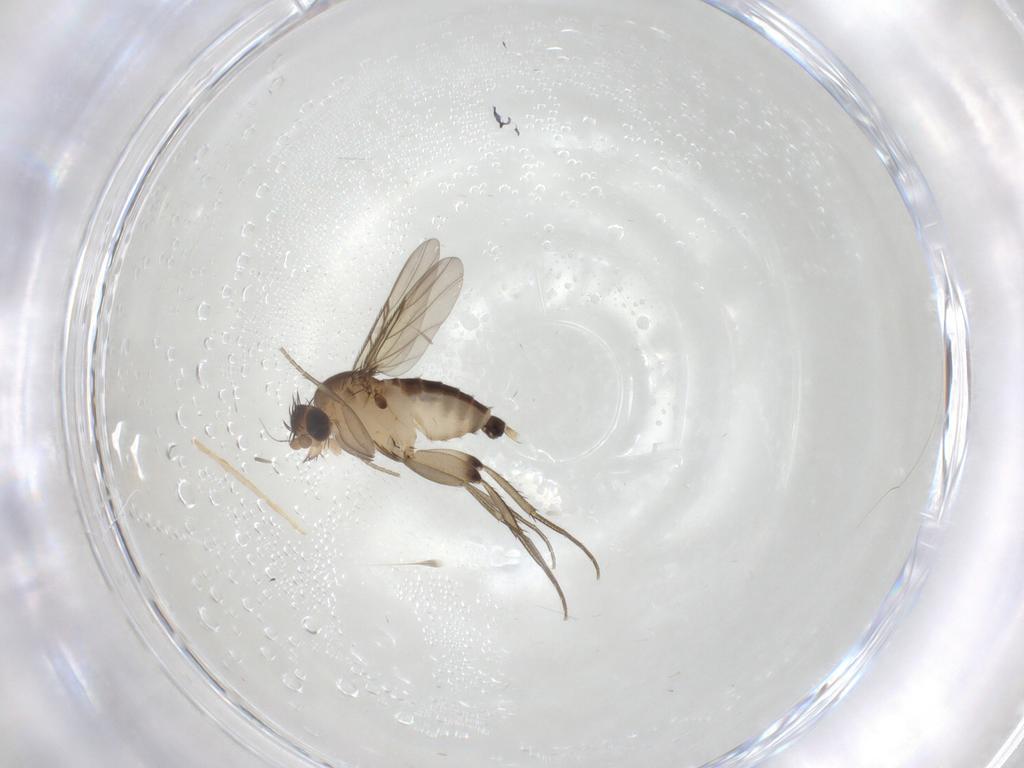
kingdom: Animalia
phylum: Arthropoda
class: Insecta
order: Diptera
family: Phoridae
